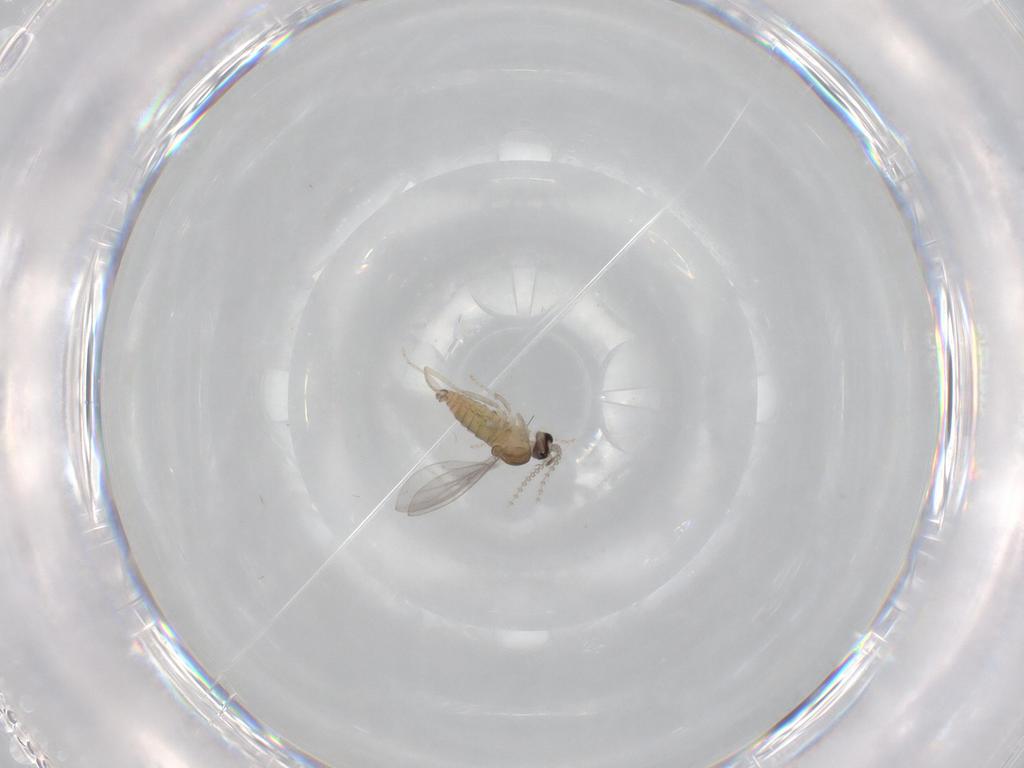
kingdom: Animalia
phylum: Arthropoda
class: Insecta
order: Diptera
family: Cecidomyiidae
